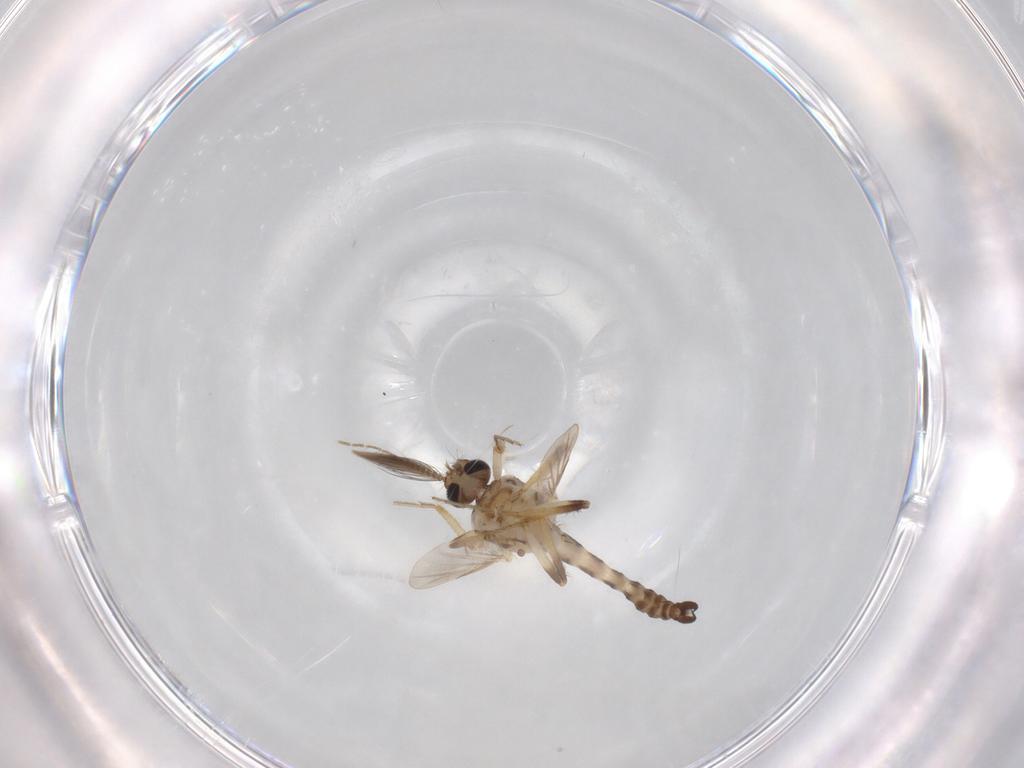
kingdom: Animalia
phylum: Arthropoda
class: Insecta
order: Diptera
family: Ceratopogonidae
